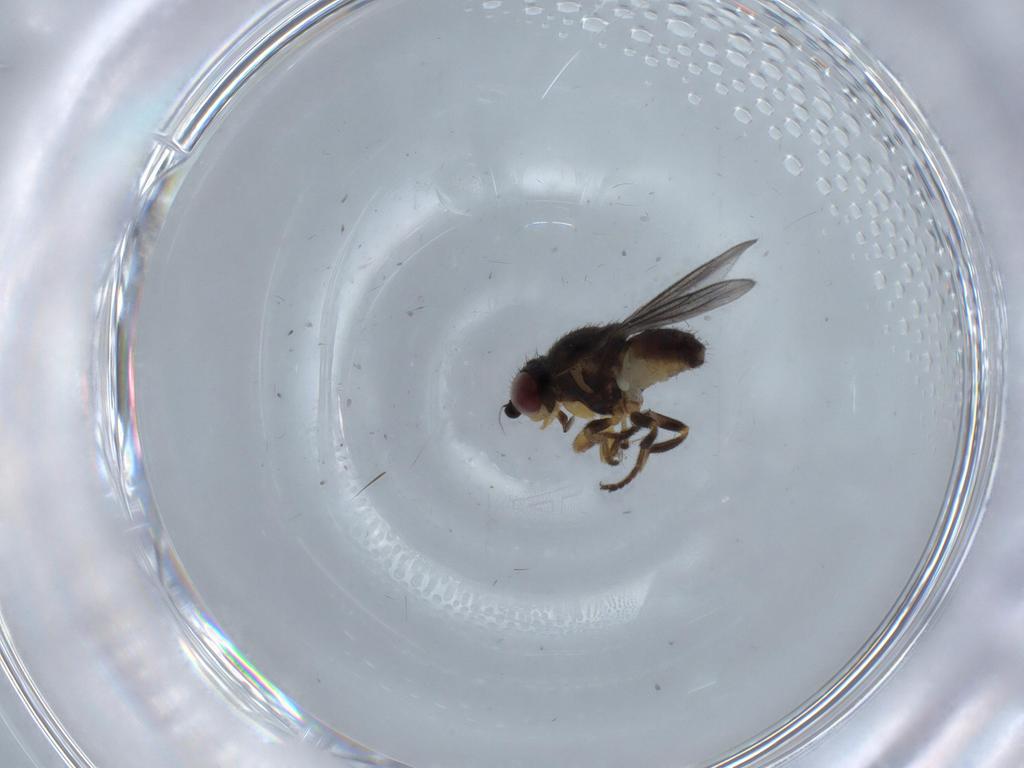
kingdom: Animalia
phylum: Arthropoda
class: Insecta
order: Diptera
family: Chloropidae
